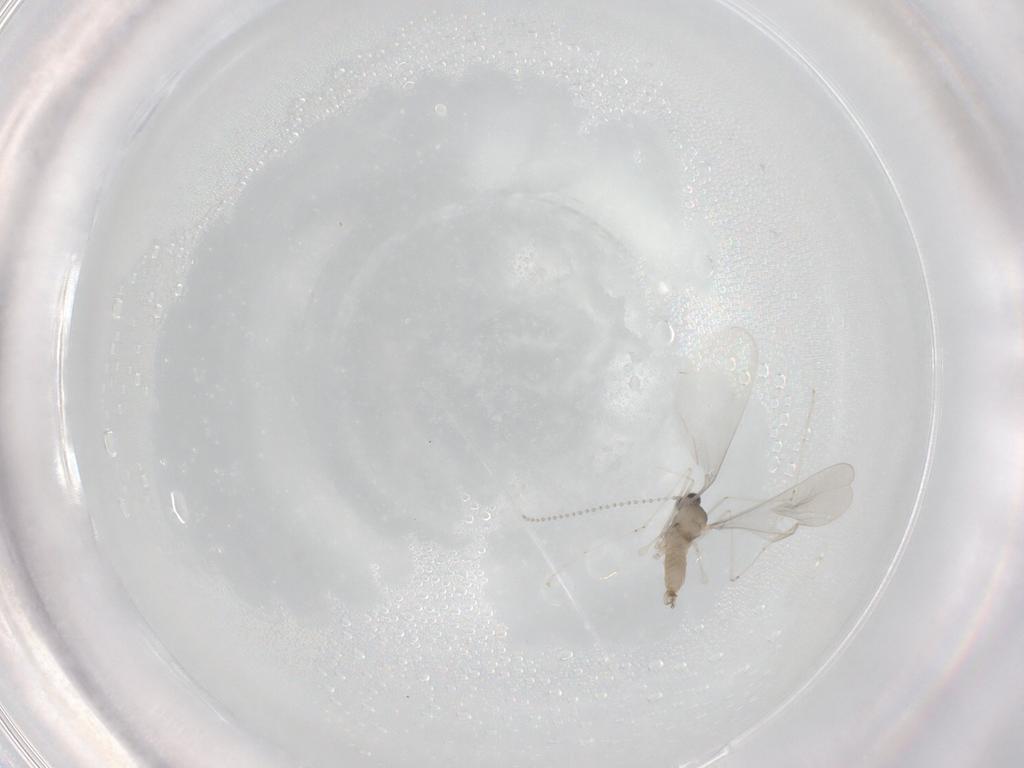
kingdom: Animalia
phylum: Arthropoda
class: Insecta
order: Diptera
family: Cecidomyiidae
